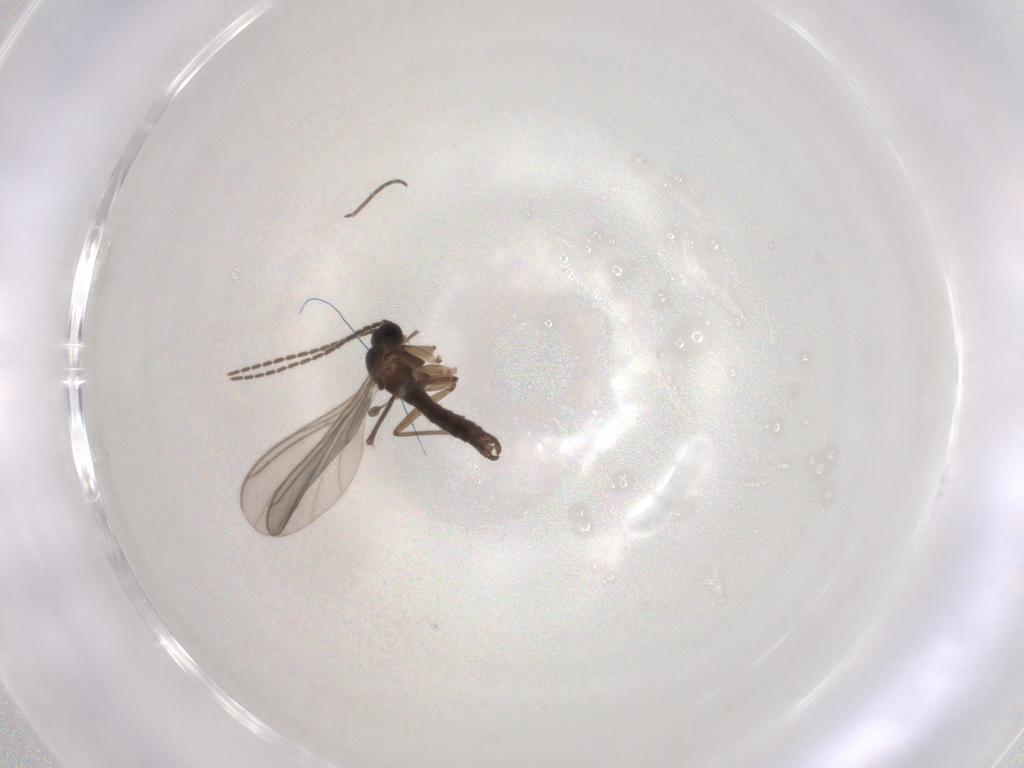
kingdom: Animalia
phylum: Arthropoda
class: Insecta
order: Diptera
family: Sciaridae
